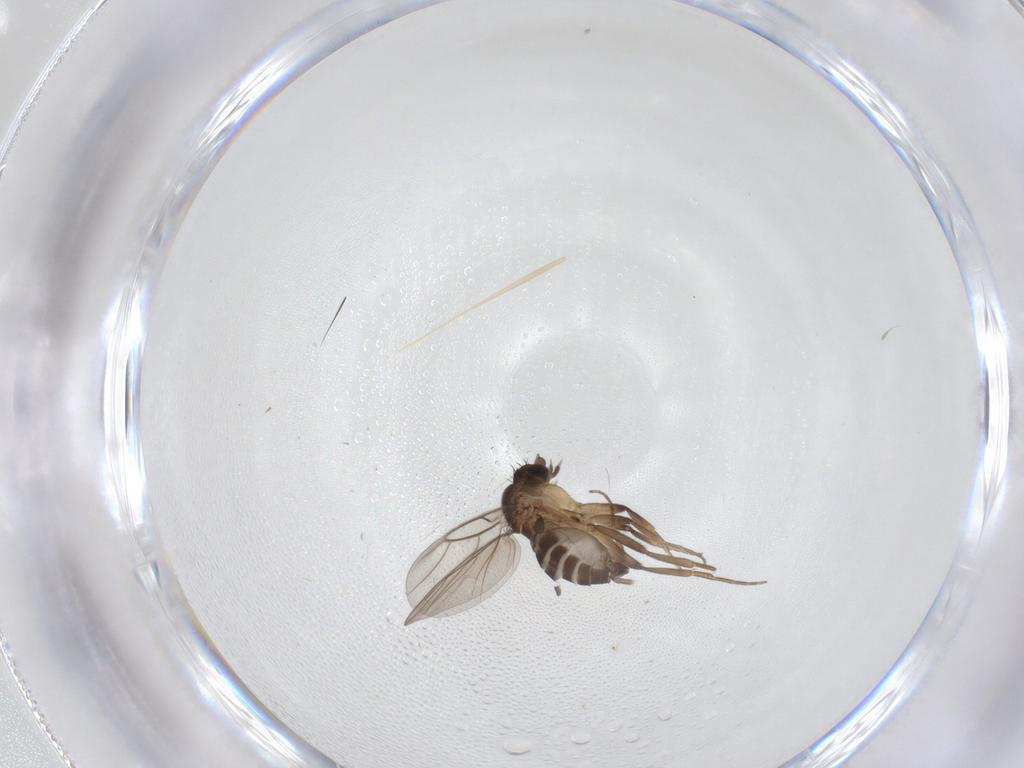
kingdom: Animalia
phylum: Arthropoda
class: Insecta
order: Diptera
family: Phoridae
